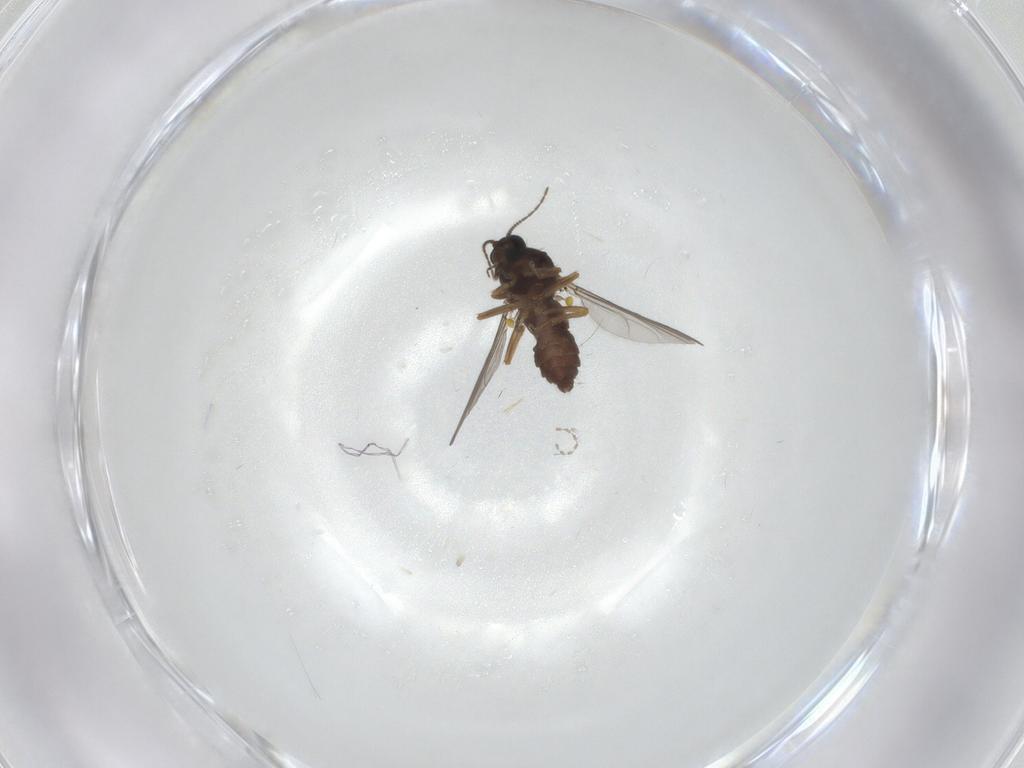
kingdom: Animalia
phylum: Arthropoda
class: Insecta
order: Diptera
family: Ceratopogonidae
